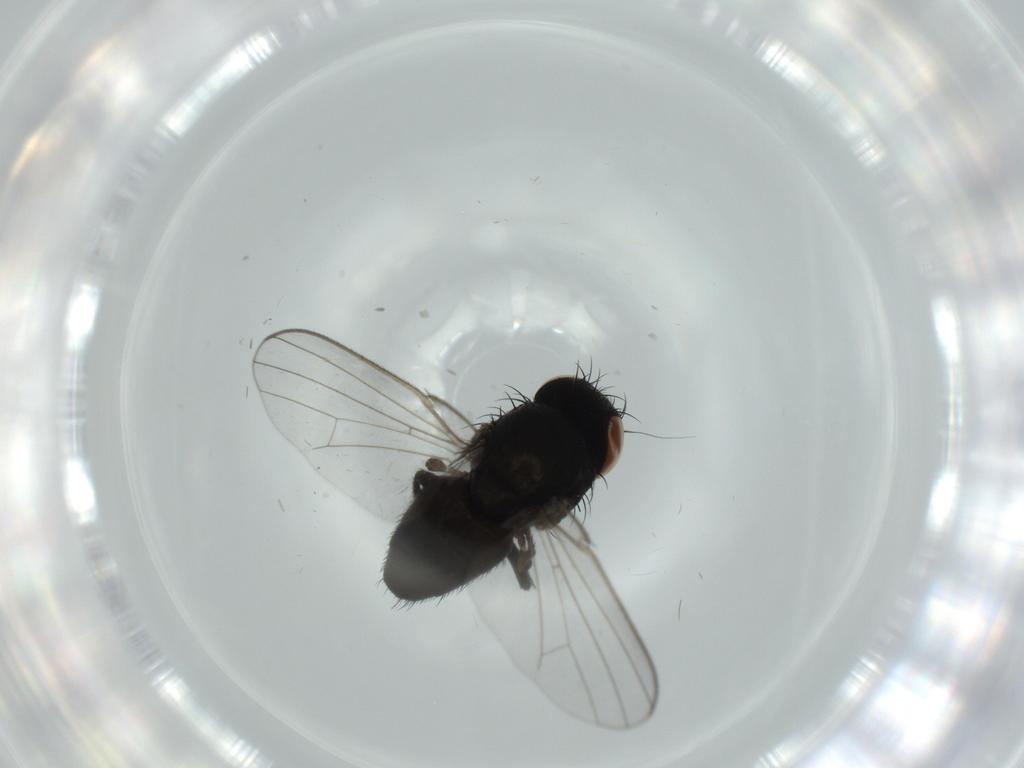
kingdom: Animalia
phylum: Arthropoda
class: Insecta
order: Diptera
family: Milichiidae
